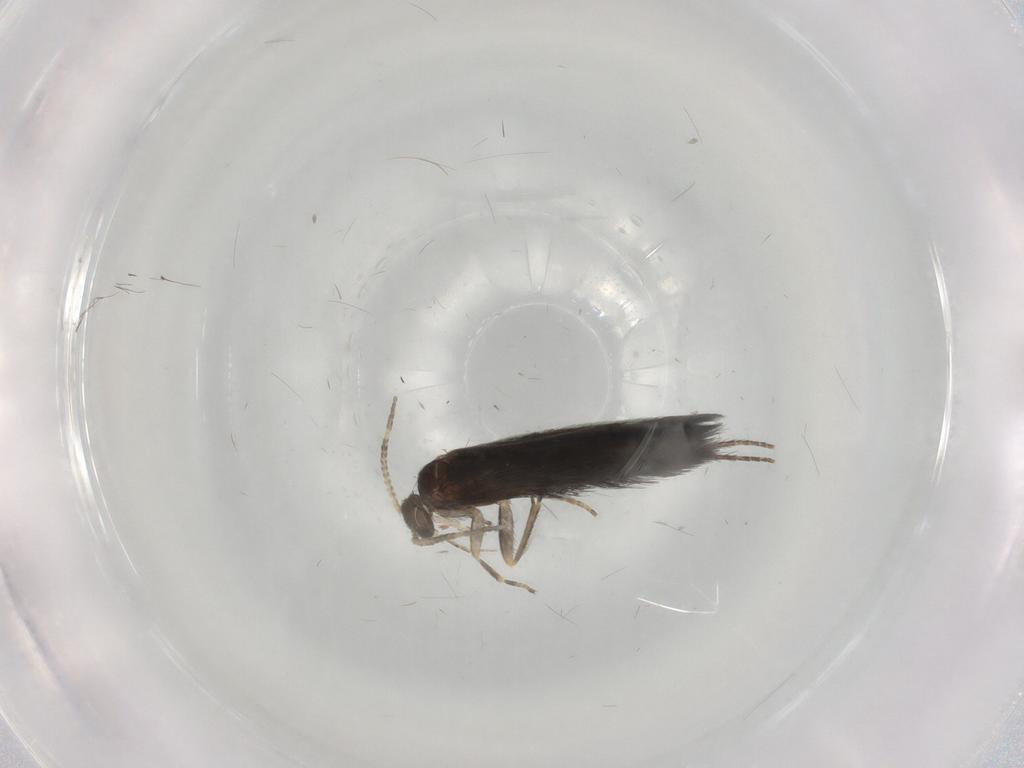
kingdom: Animalia
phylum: Arthropoda
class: Insecta
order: Trichoptera
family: Hydroptilidae
